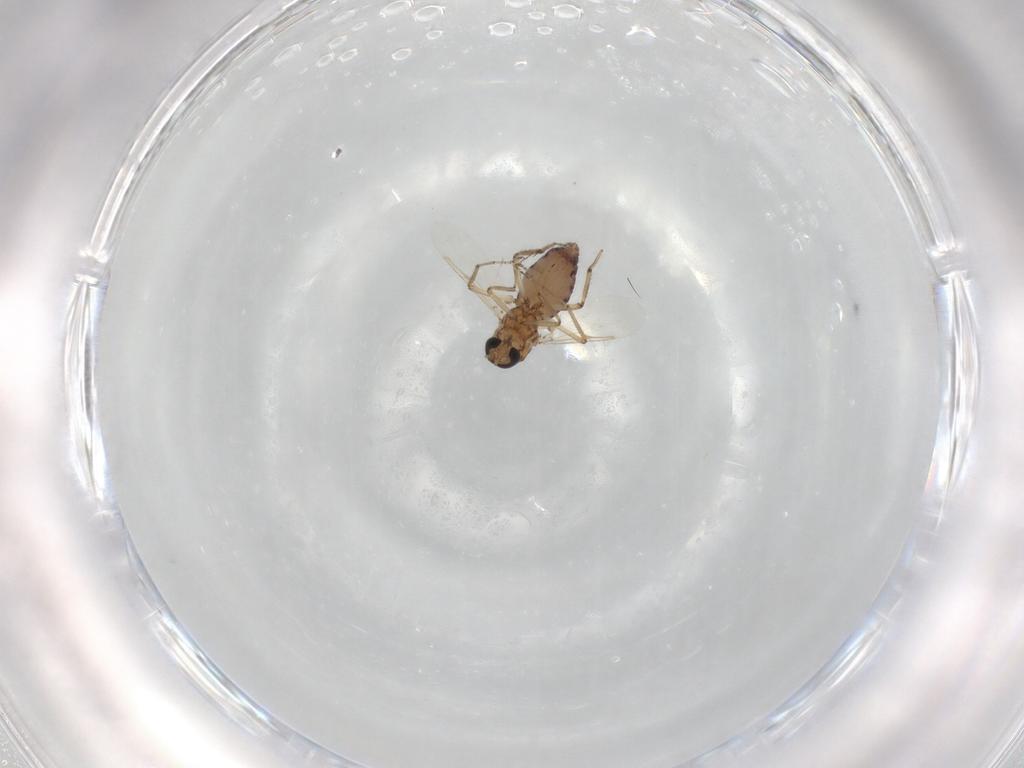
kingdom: Animalia
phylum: Arthropoda
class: Insecta
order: Diptera
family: Ceratopogonidae
